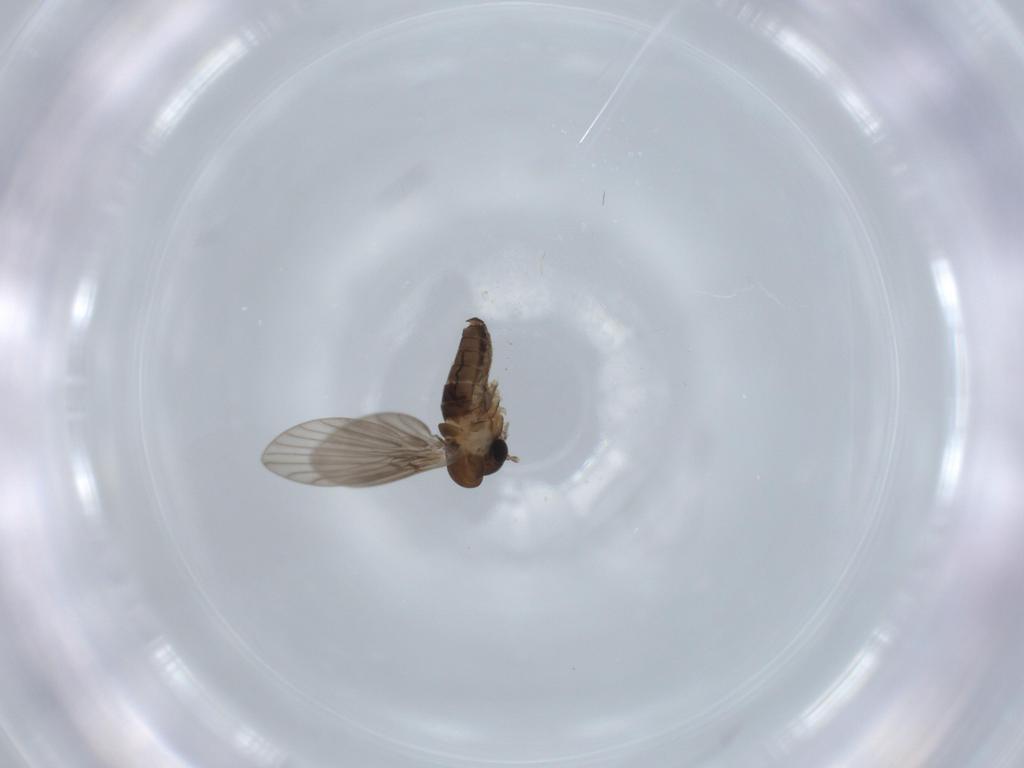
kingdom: Animalia
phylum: Arthropoda
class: Insecta
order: Diptera
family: Psychodidae
